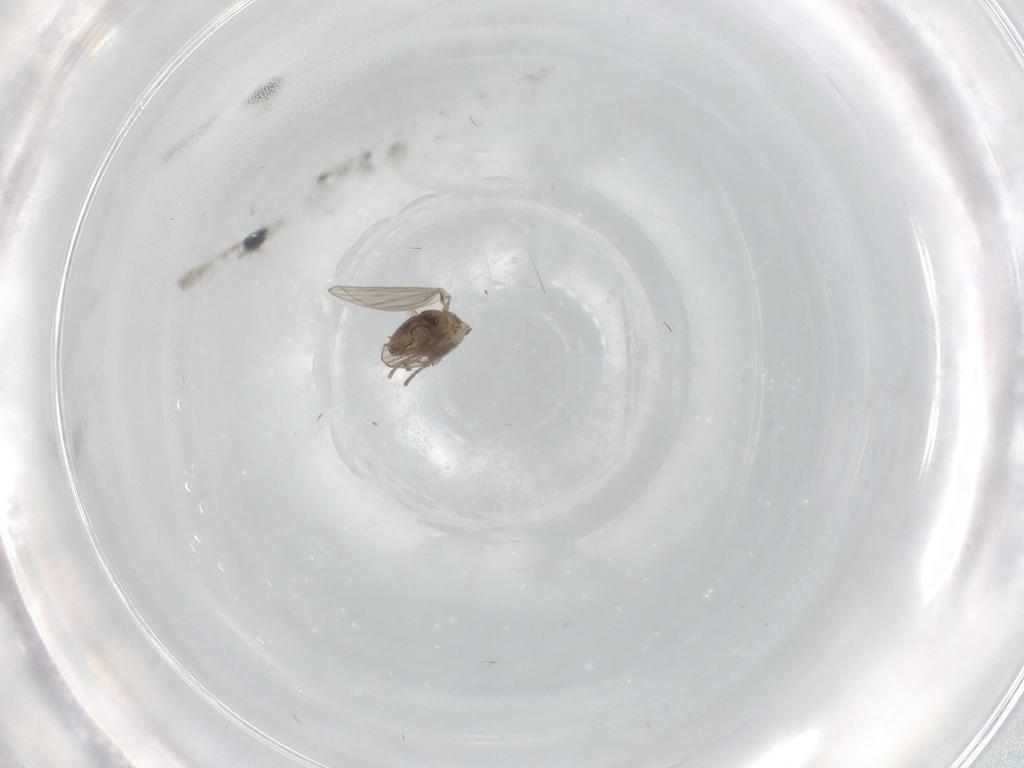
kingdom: Animalia
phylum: Arthropoda
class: Insecta
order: Diptera
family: Psychodidae
